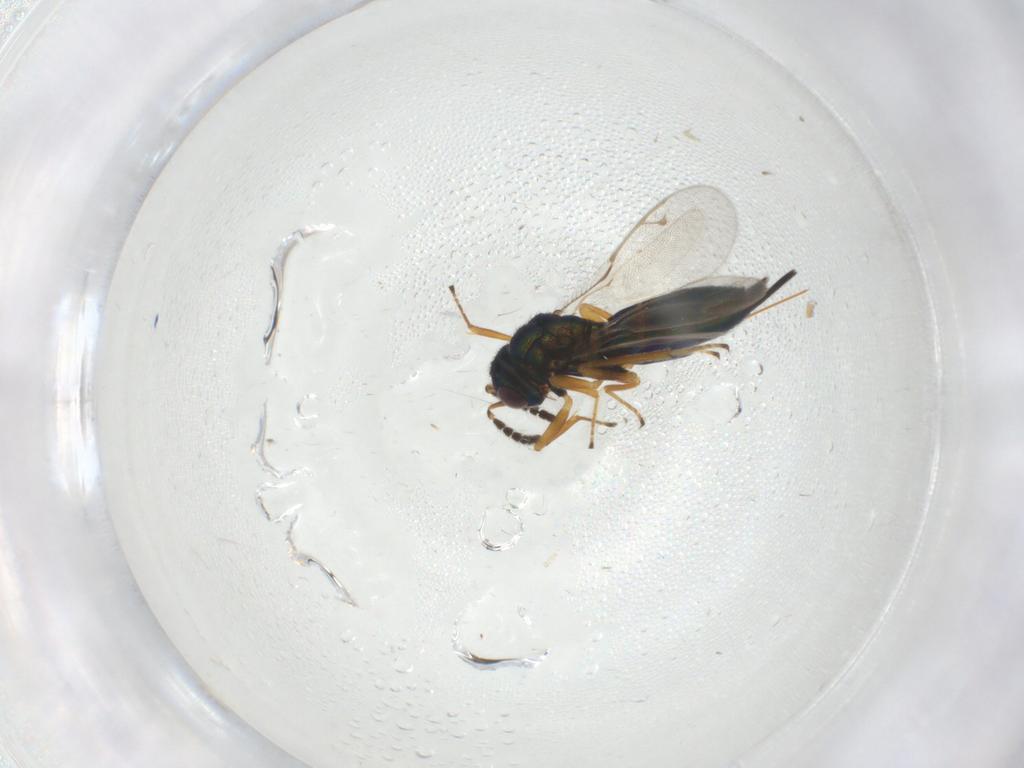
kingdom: Animalia
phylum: Arthropoda
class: Insecta
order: Hymenoptera
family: Pirenidae
